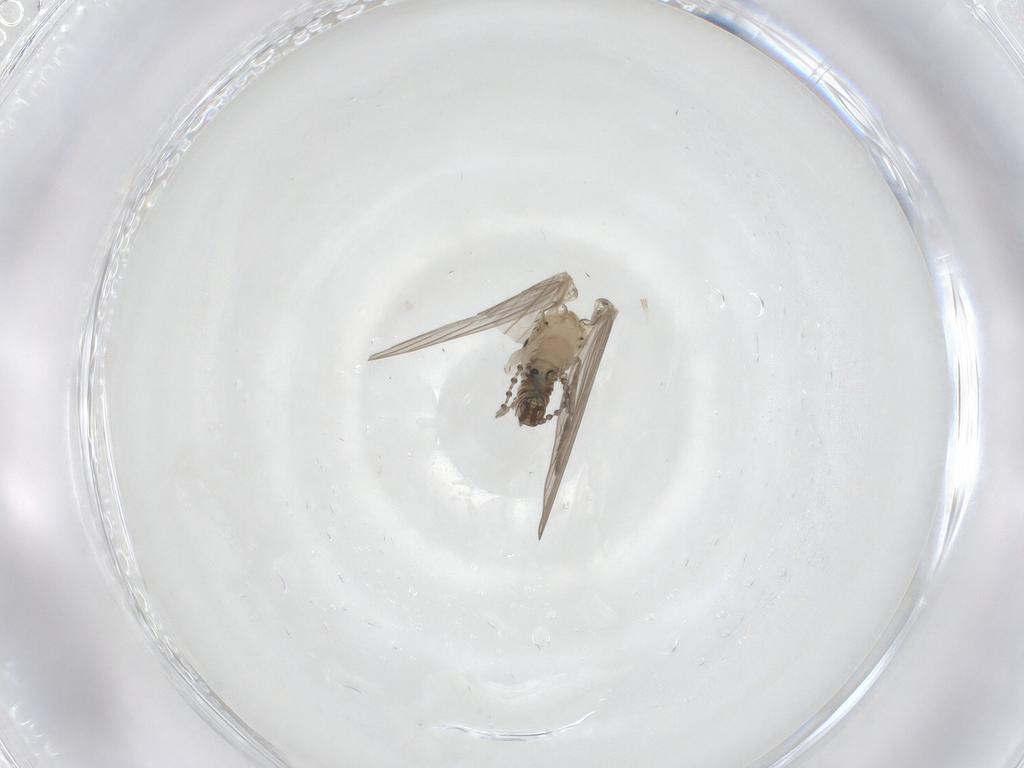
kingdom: Animalia
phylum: Arthropoda
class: Insecta
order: Diptera
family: Psychodidae
